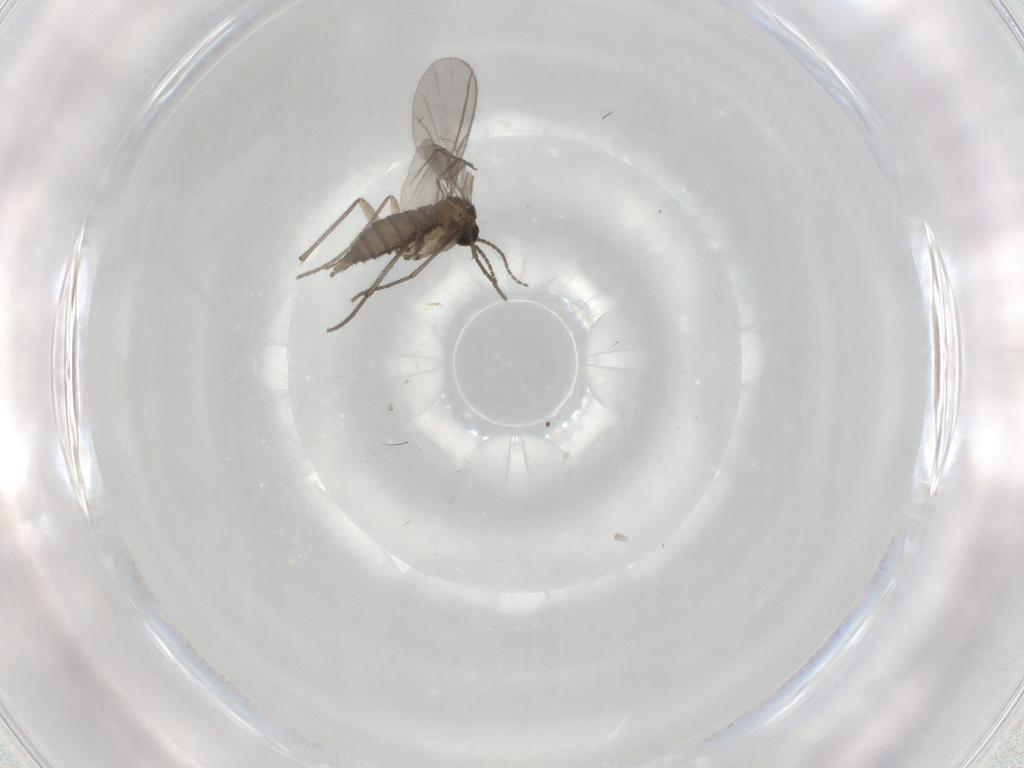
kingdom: Animalia
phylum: Arthropoda
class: Insecta
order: Diptera
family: Sciaridae
